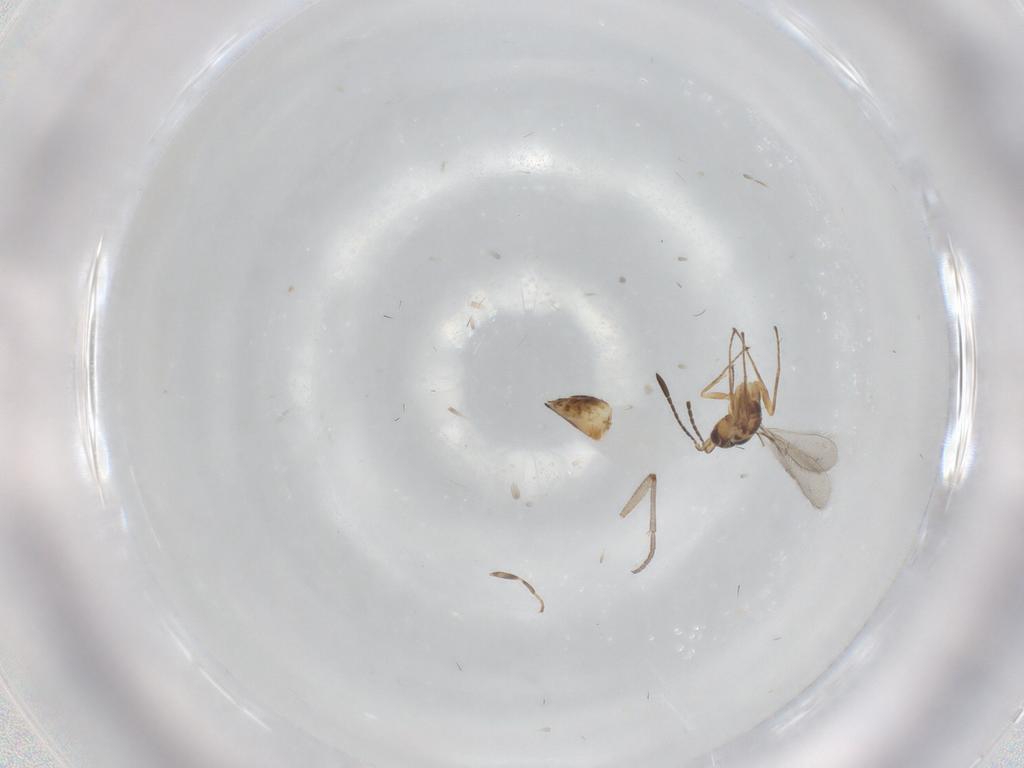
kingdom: Animalia
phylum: Arthropoda
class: Insecta
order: Hymenoptera
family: Mymaridae
